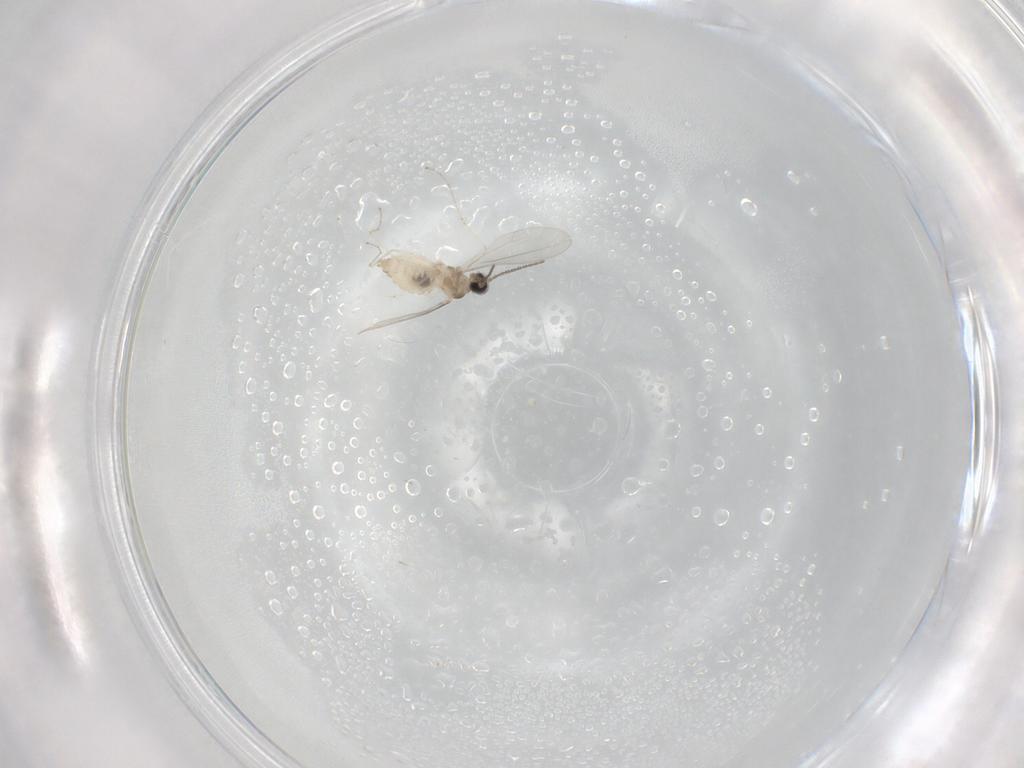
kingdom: Animalia
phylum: Arthropoda
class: Insecta
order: Diptera
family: Cecidomyiidae
